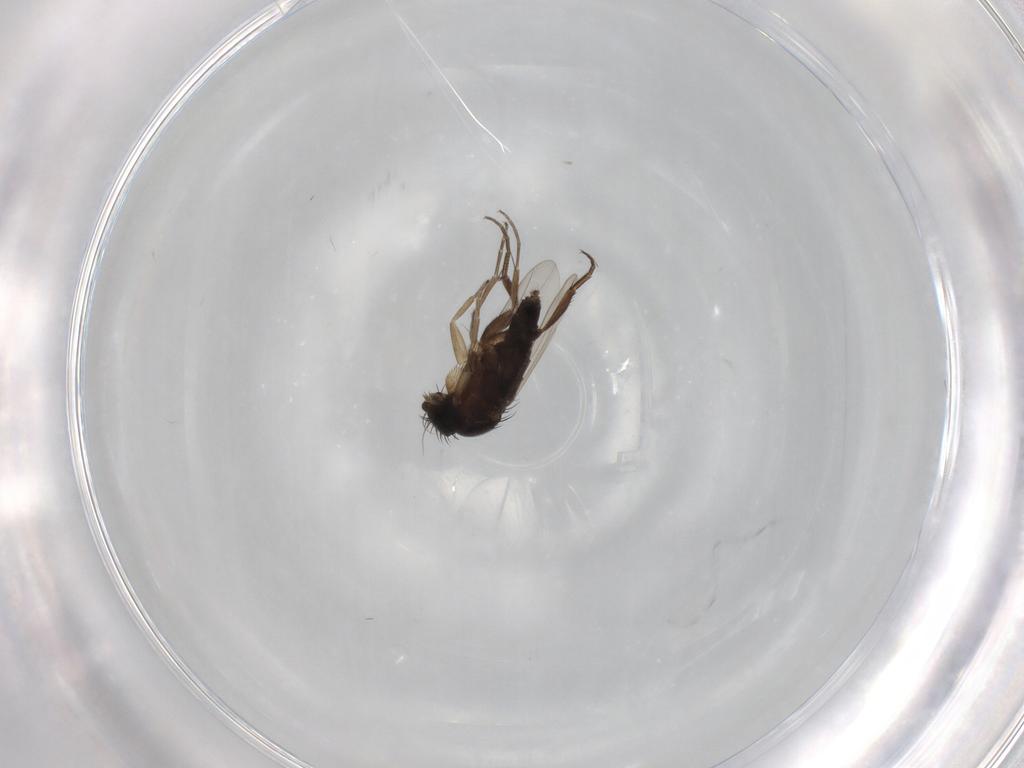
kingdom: Animalia
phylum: Arthropoda
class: Insecta
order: Diptera
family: Phoridae
